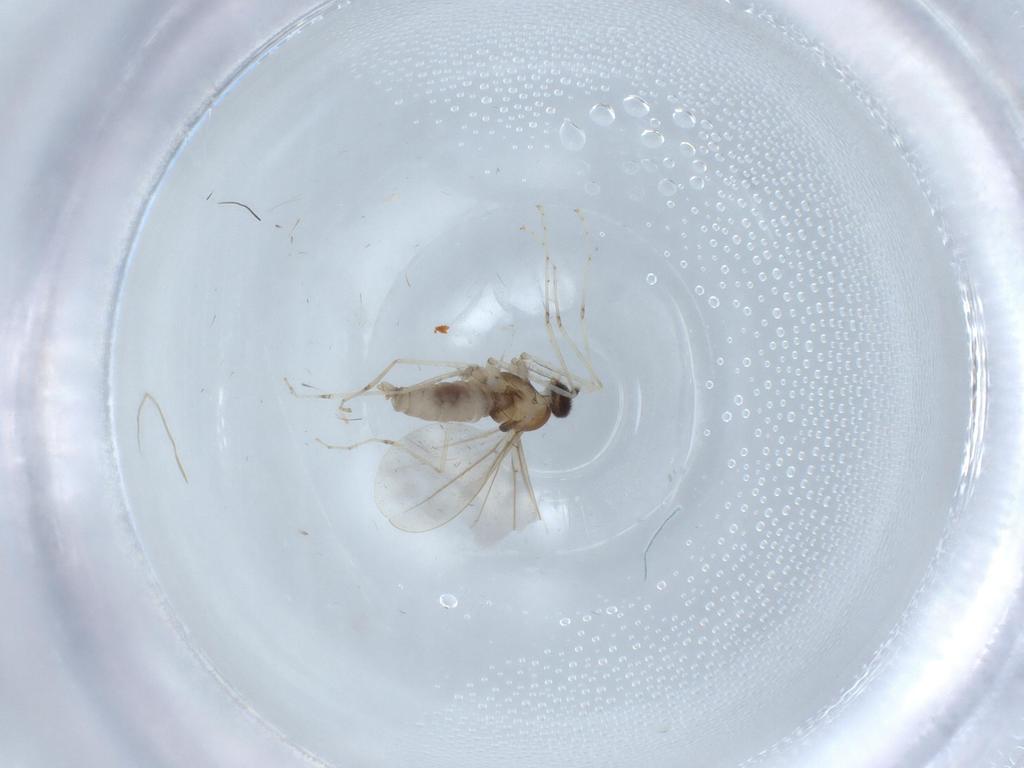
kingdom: Animalia
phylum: Arthropoda
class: Insecta
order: Diptera
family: Cecidomyiidae
